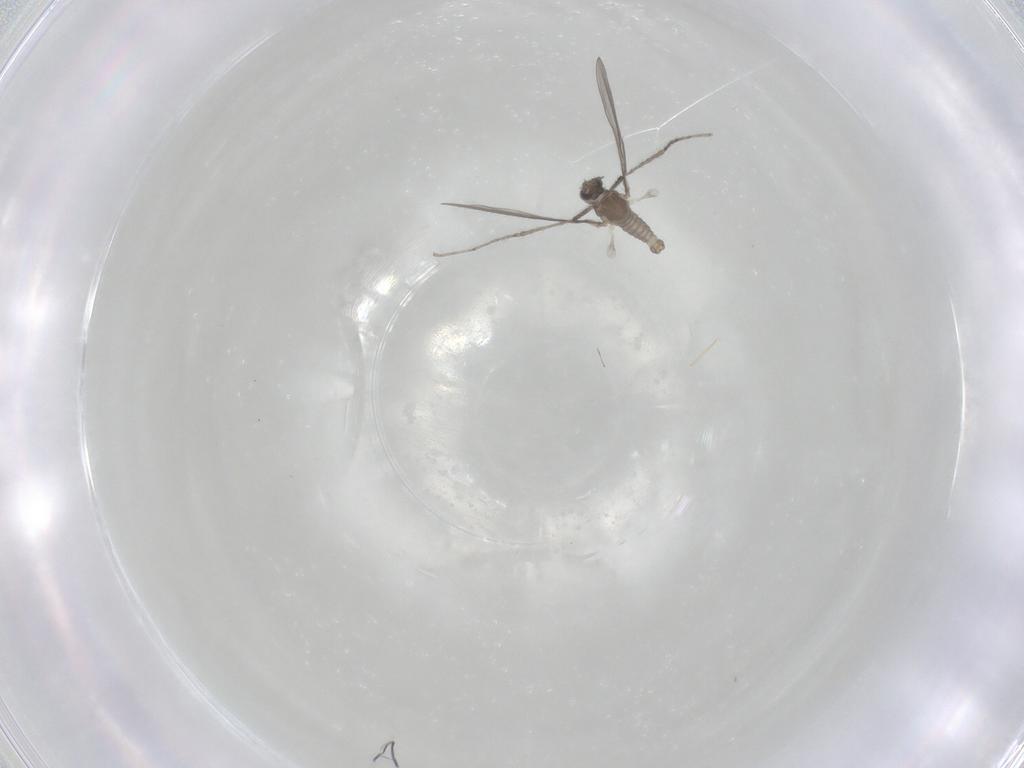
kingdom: Animalia
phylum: Arthropoda
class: Insecta
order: Diptera
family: Cecidomyiidae
